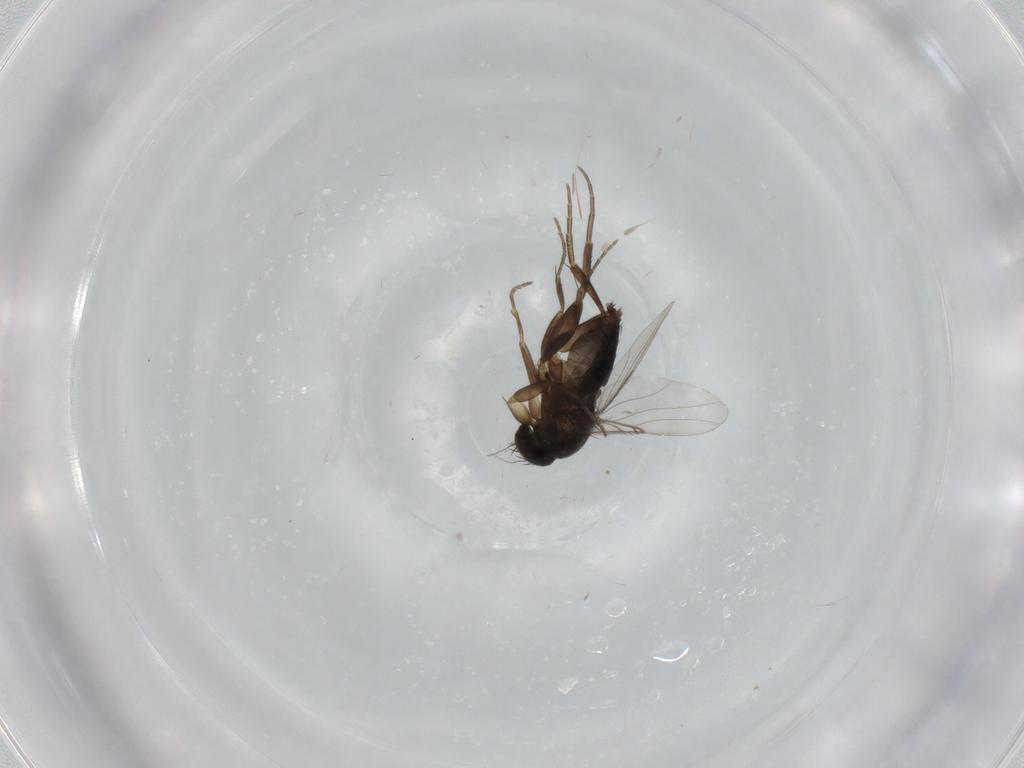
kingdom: Animalia
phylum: Arthropoda
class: Insecta
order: Diptera
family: Phoridae
